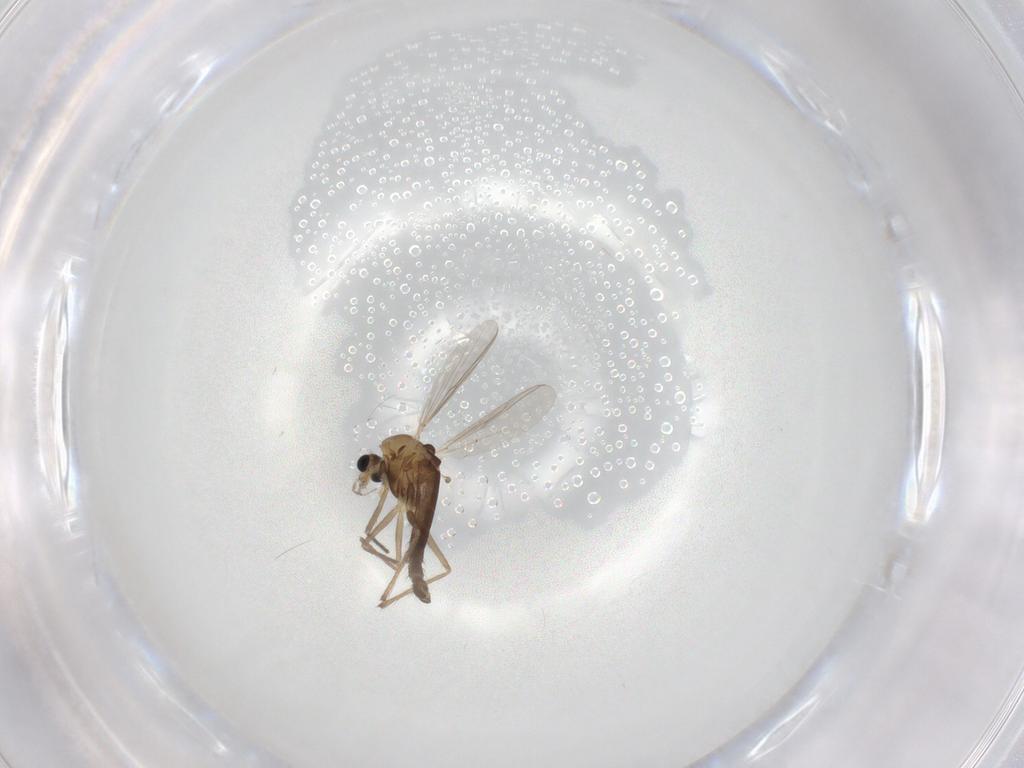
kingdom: Animalia
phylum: Arthropoda
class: Insecta
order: Diptera
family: Chironomidae
